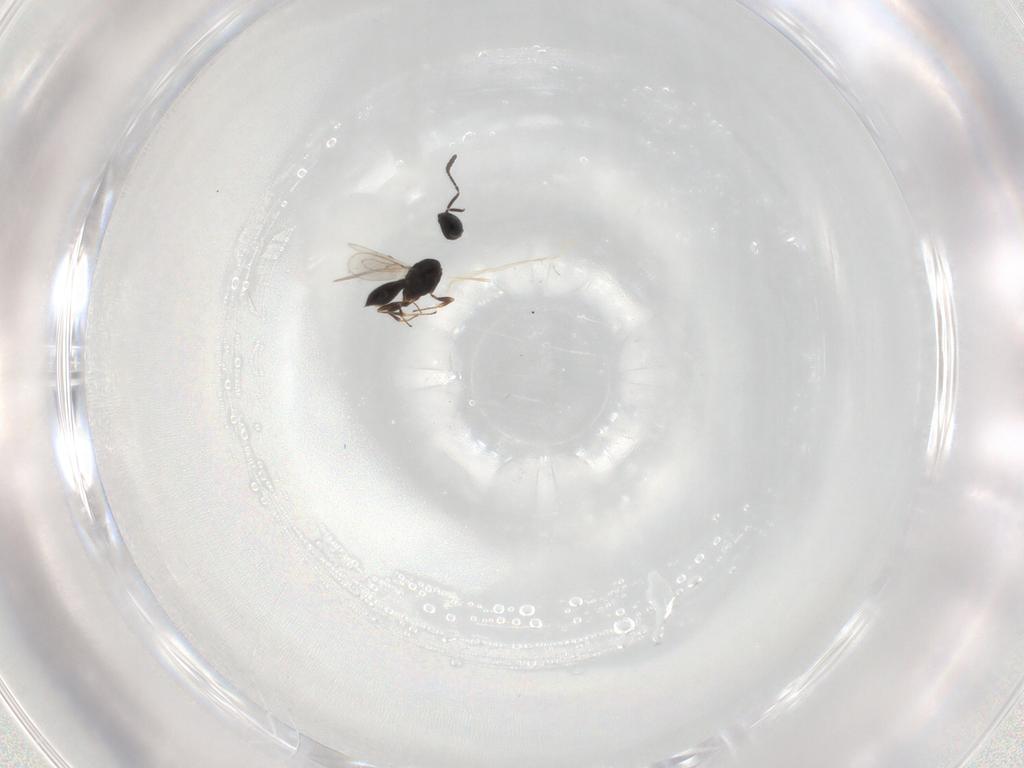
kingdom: Animalia
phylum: Arthropoda
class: Insecta
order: Hymenoptera
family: Scelionidae
